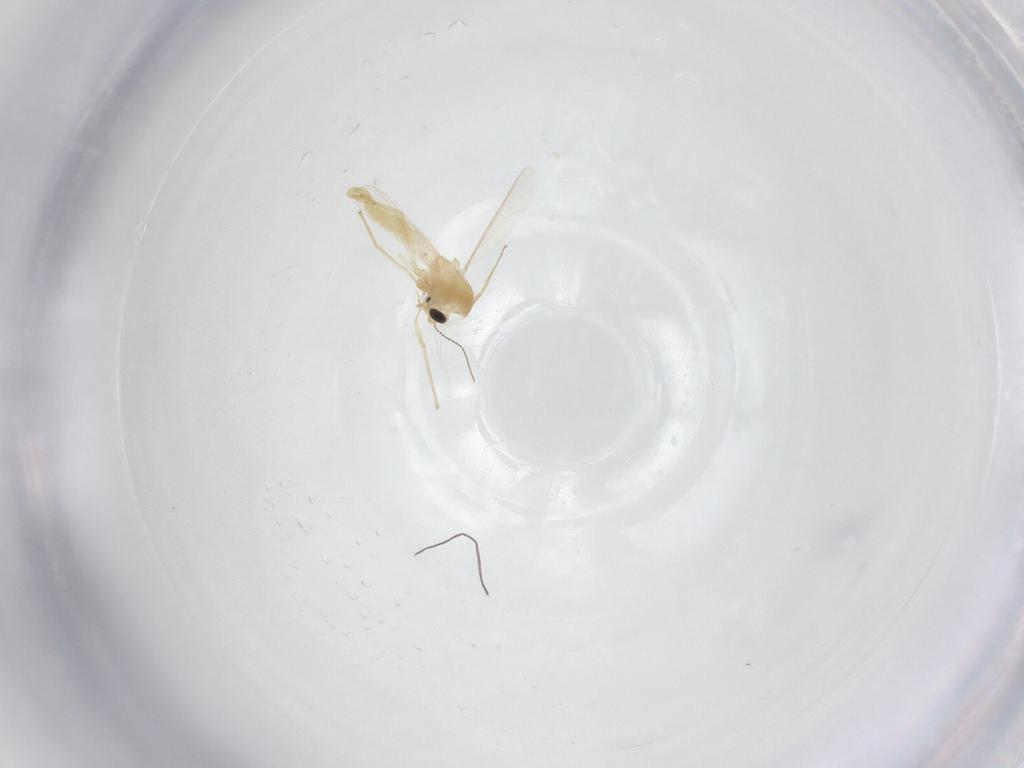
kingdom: Animalia
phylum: Arthropoda
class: Insecta
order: Diptera
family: Chironomidae
